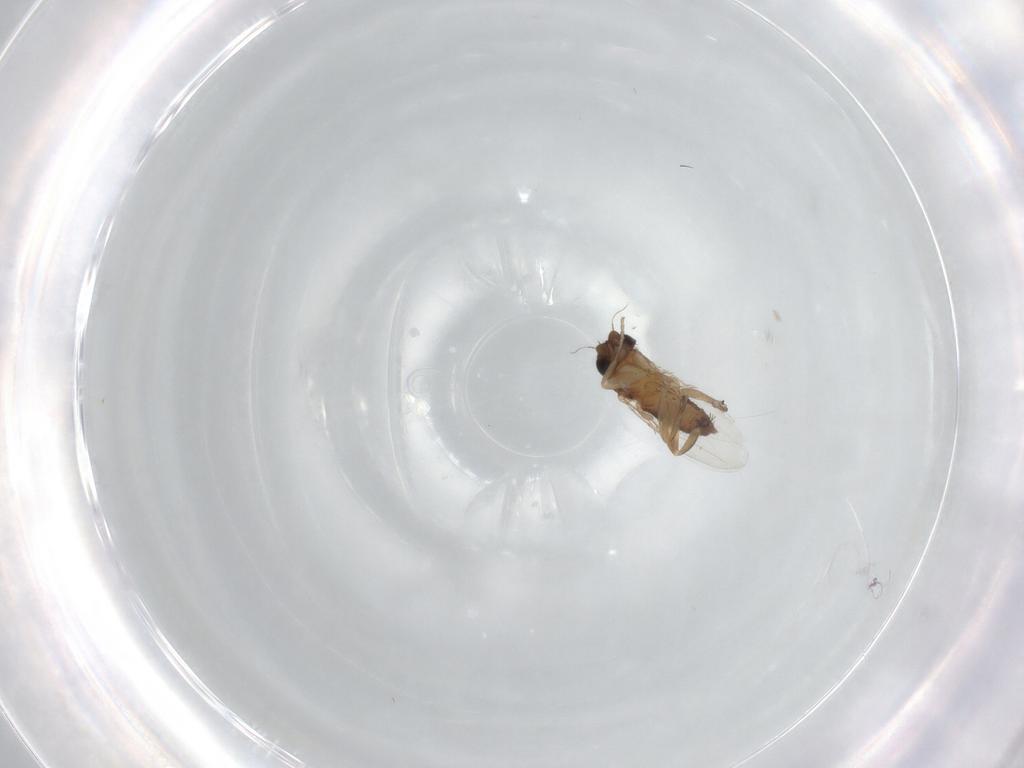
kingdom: Animalia
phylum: Arthropoda
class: Insecta
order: Diptera
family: Phoridae
